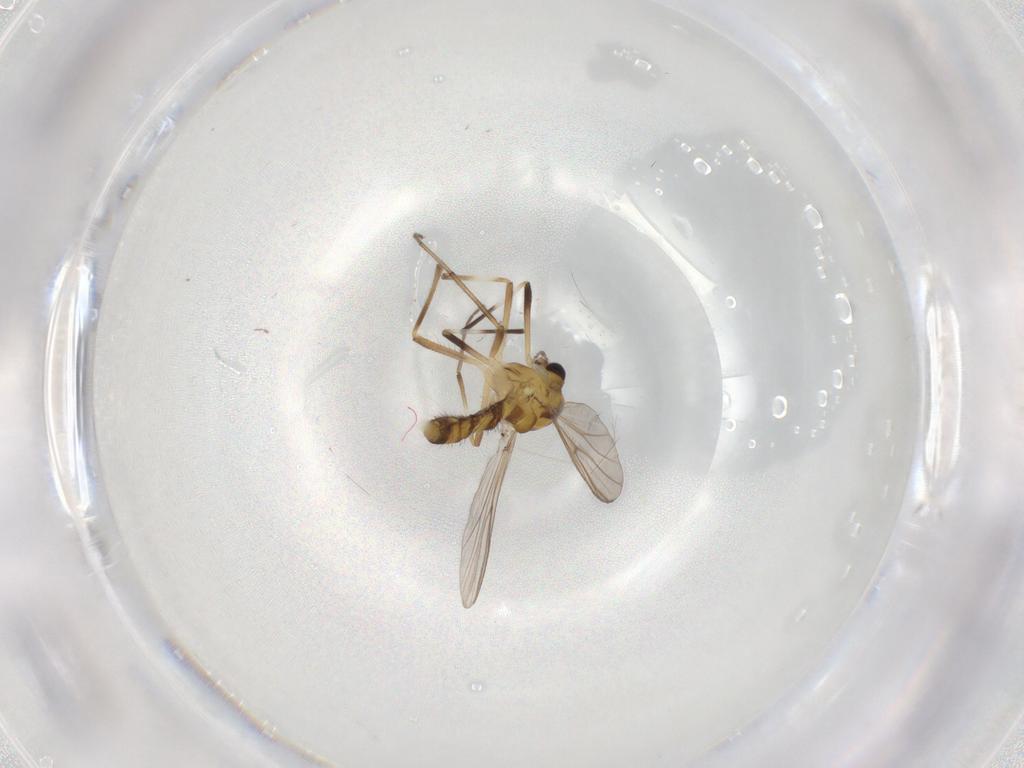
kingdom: Animalia
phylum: Arthropoda
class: Insecta
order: Diptera
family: Chironomidae
